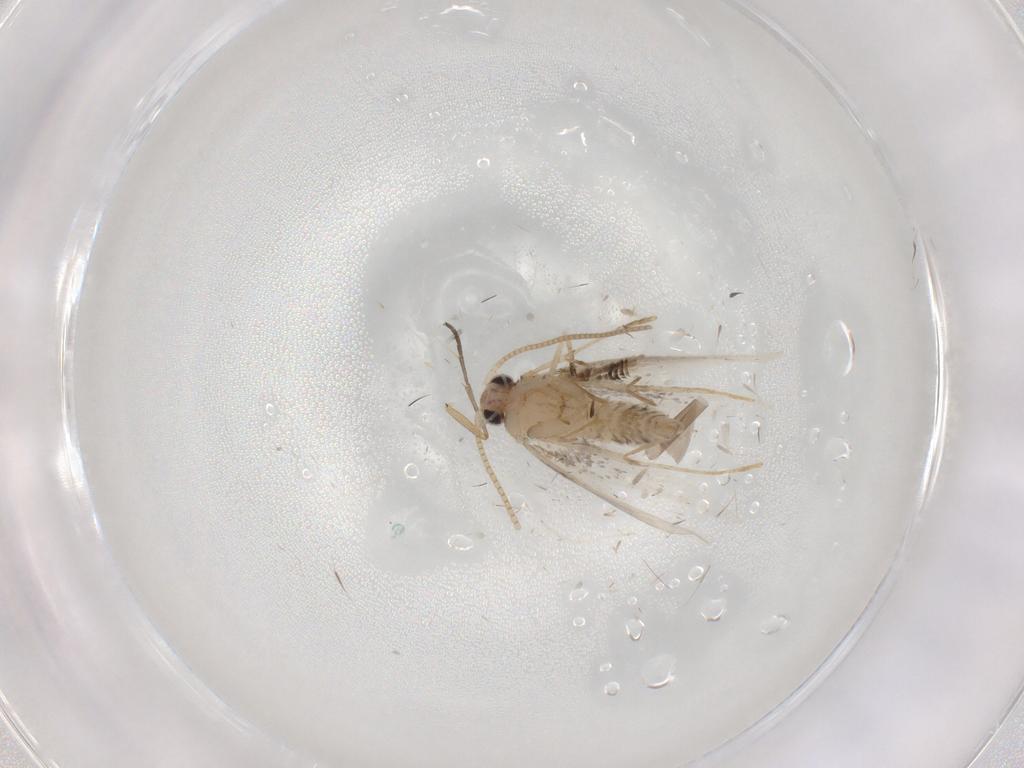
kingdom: Animalia
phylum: Arthropoda
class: Insecta
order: Lepidoptera
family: Tineidae
